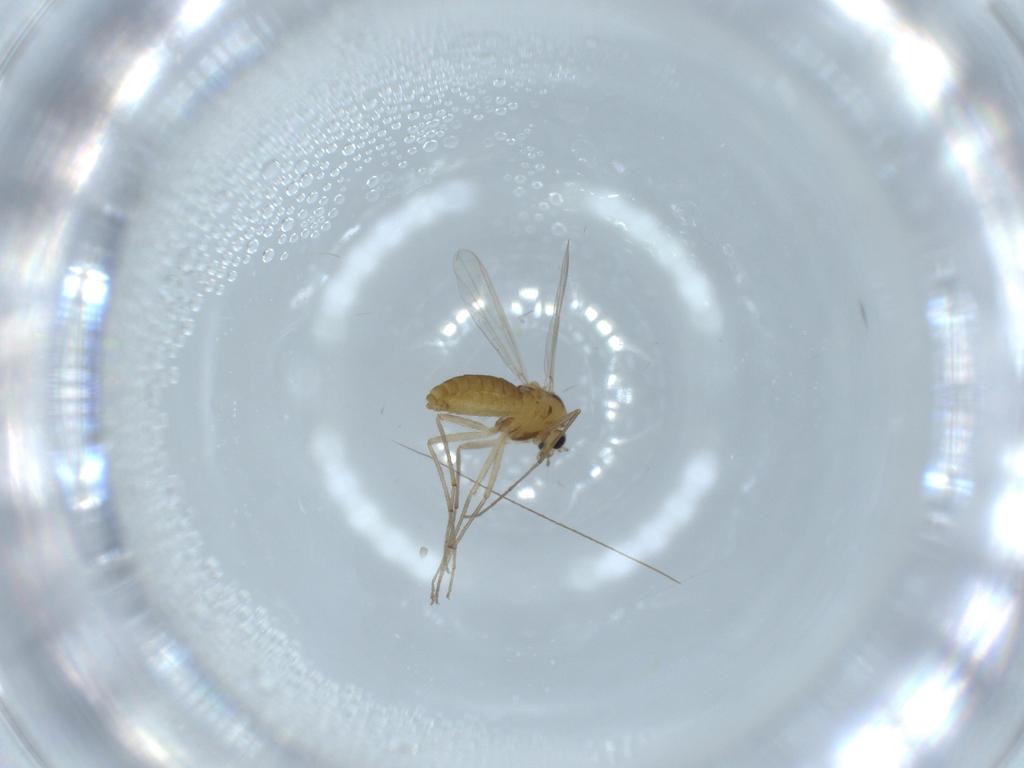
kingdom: Animalia
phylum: Arthropoda
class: Insecta
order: Diptera
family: Chironomidae
